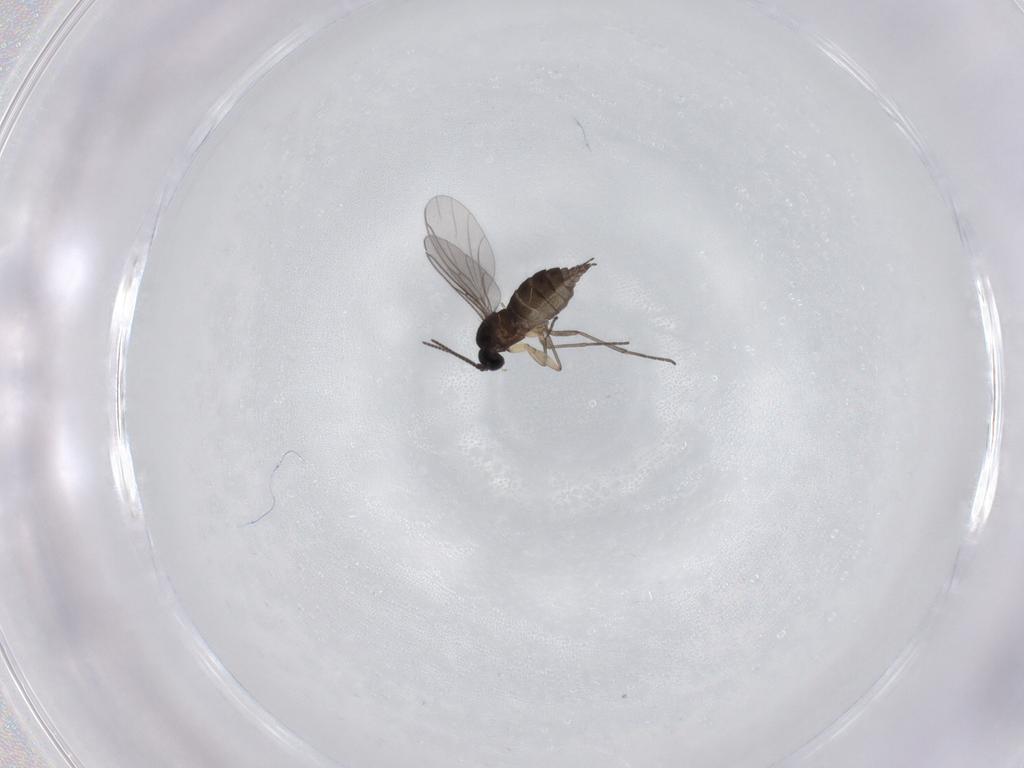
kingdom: Animalia
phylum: Arthropoda
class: Insecta
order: Diptera
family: Sciaridae
